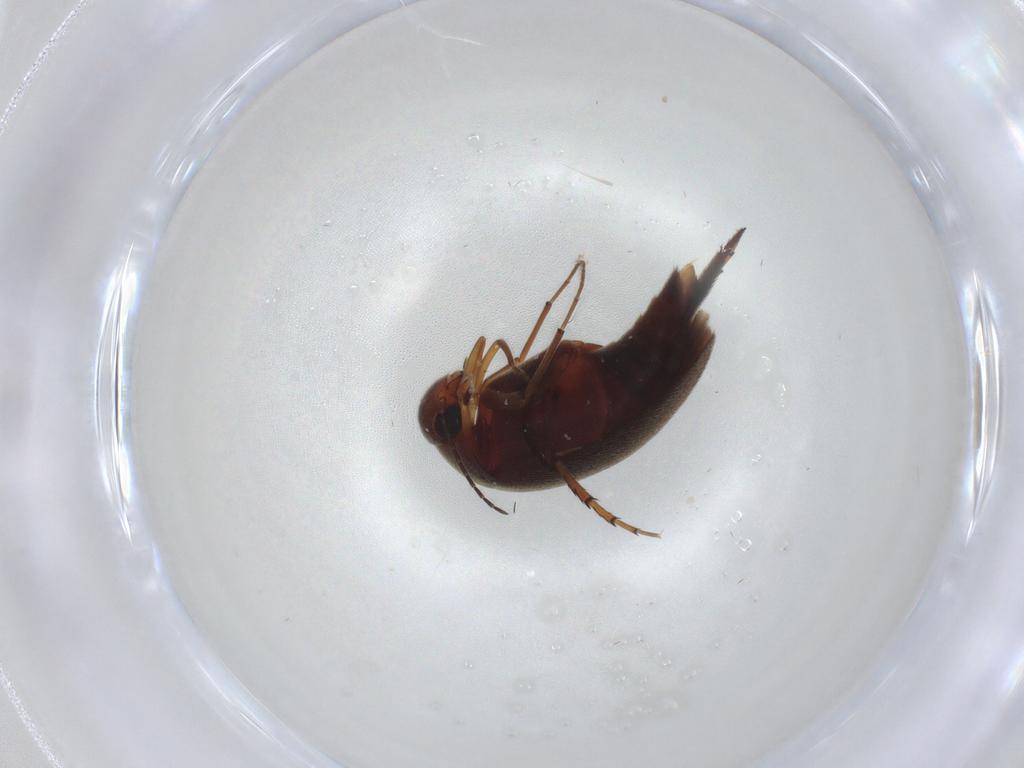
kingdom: Animalia
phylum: Arthropoda
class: Insecta
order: Coleoptera
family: Mordellidae
